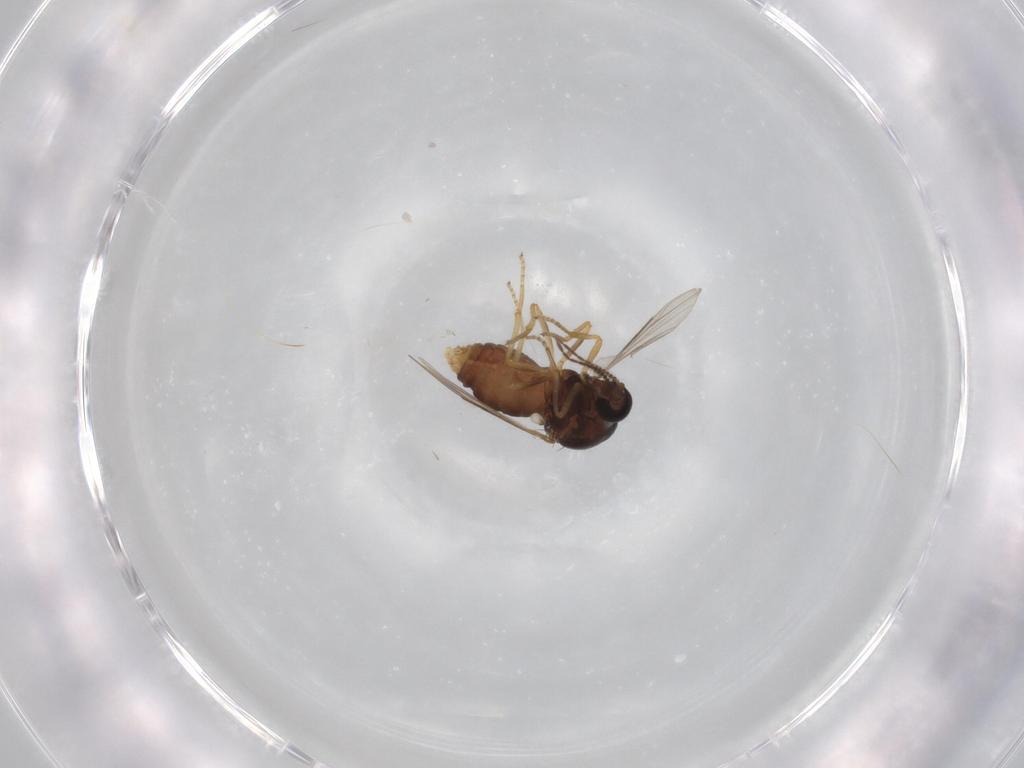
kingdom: Animalia
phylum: Arthropoda
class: Insecta
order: Diptera
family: Ceratopogonidae
